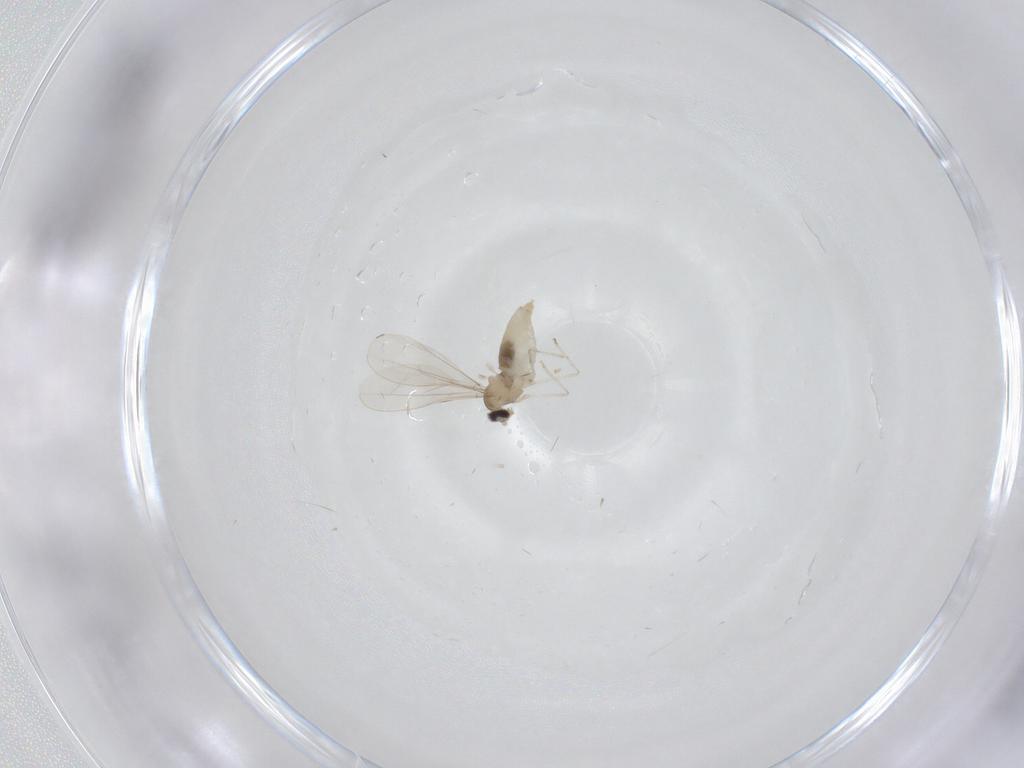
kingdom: Animalia
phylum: Arthropoda
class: Insecta
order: Diptera
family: Cecidomyiidae
